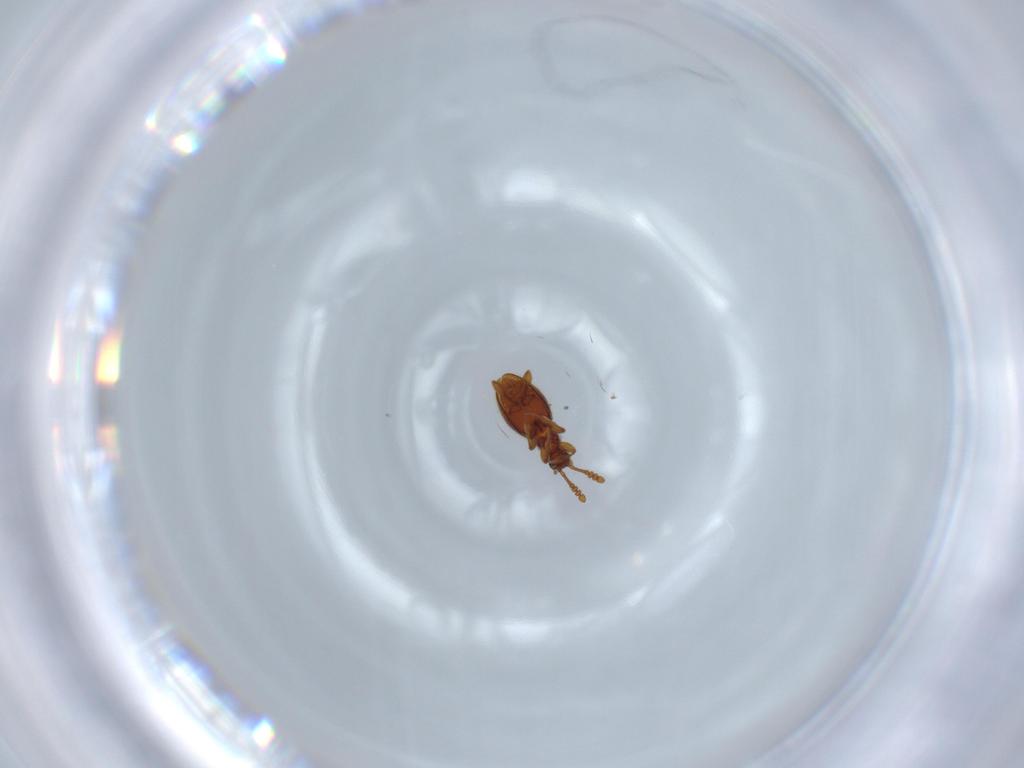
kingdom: Animalia
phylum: Arthropoda
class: Insecta
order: Coleoptera
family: Staphylinidae
